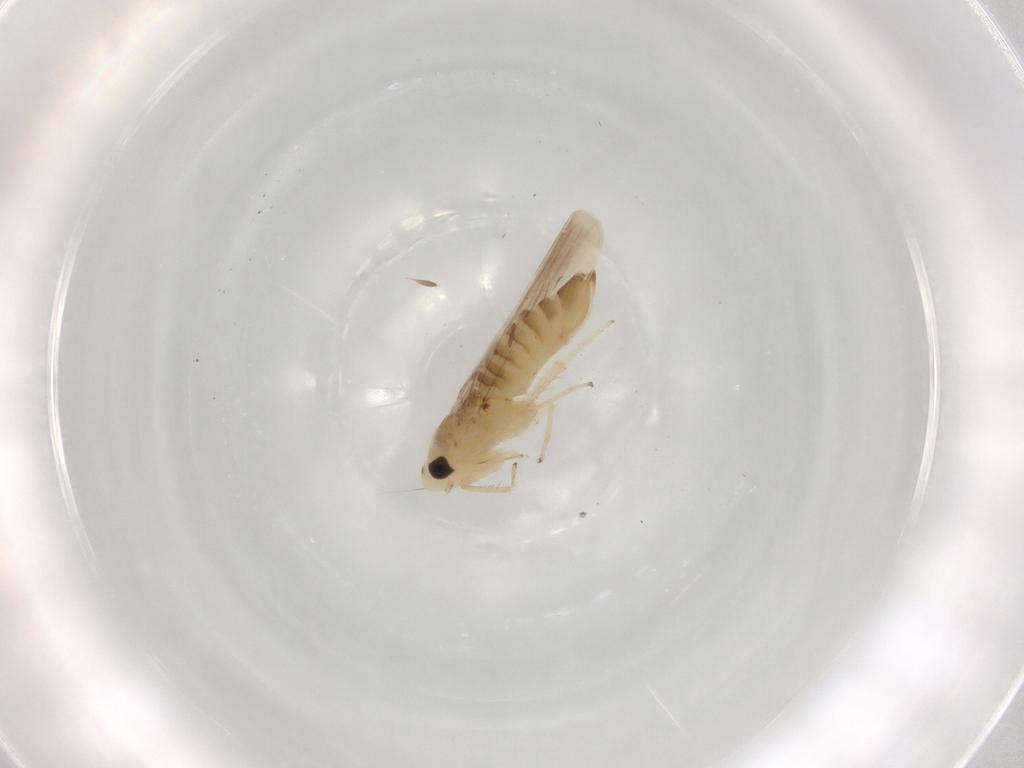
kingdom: Animalia
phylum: Arthropoda
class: Insecta
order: Hemiptera
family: Cicadellidae
